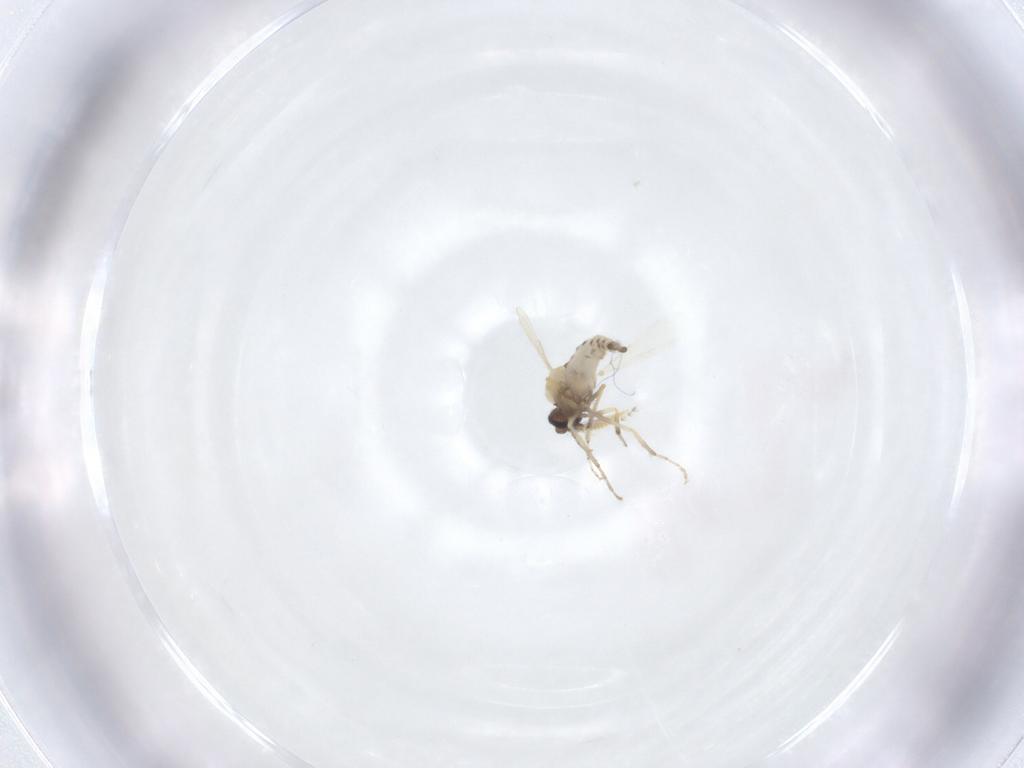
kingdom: Animalia
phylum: Arthropoda
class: Insecta
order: Diptera
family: Ceratopogonidae
